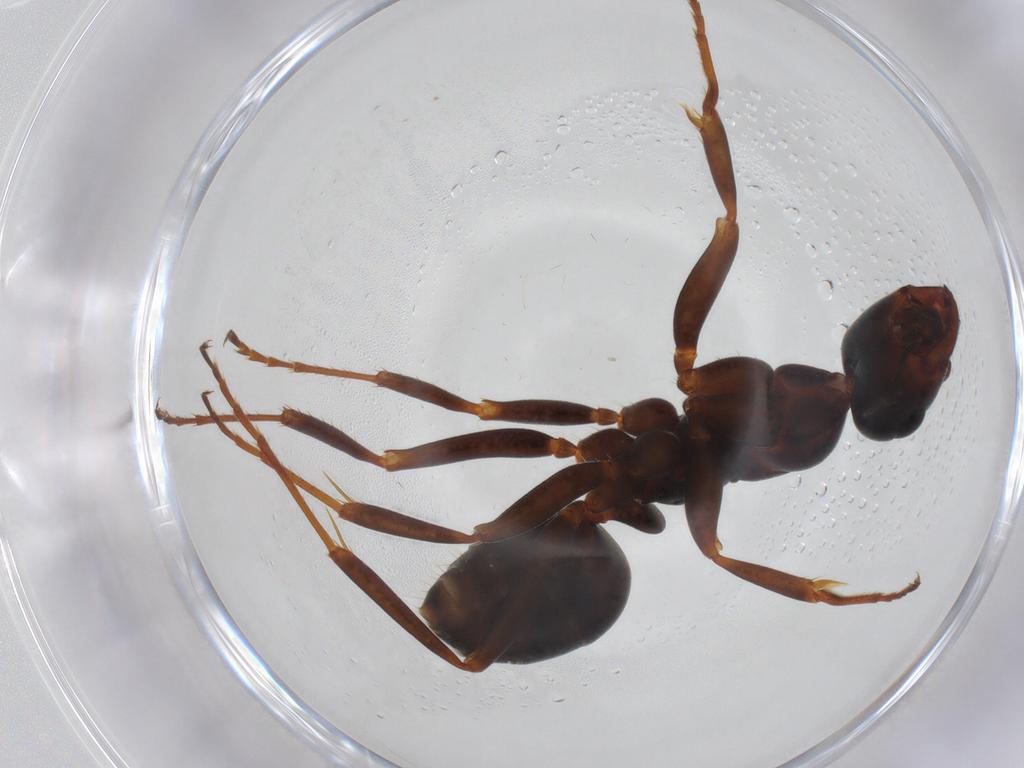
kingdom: Animalia
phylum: Arthropoda
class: Insecta
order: Hymenoptera
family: Formicidae
